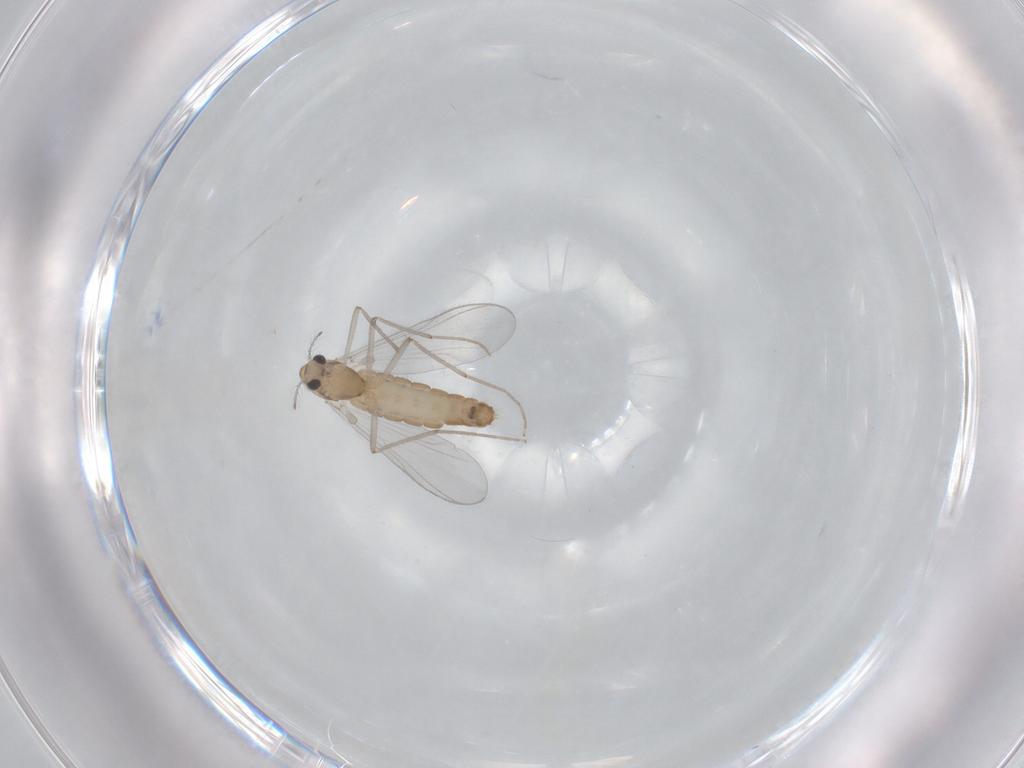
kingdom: Animalia
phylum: Arthropoda
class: Insecta
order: Diptera
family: Chironomidae
